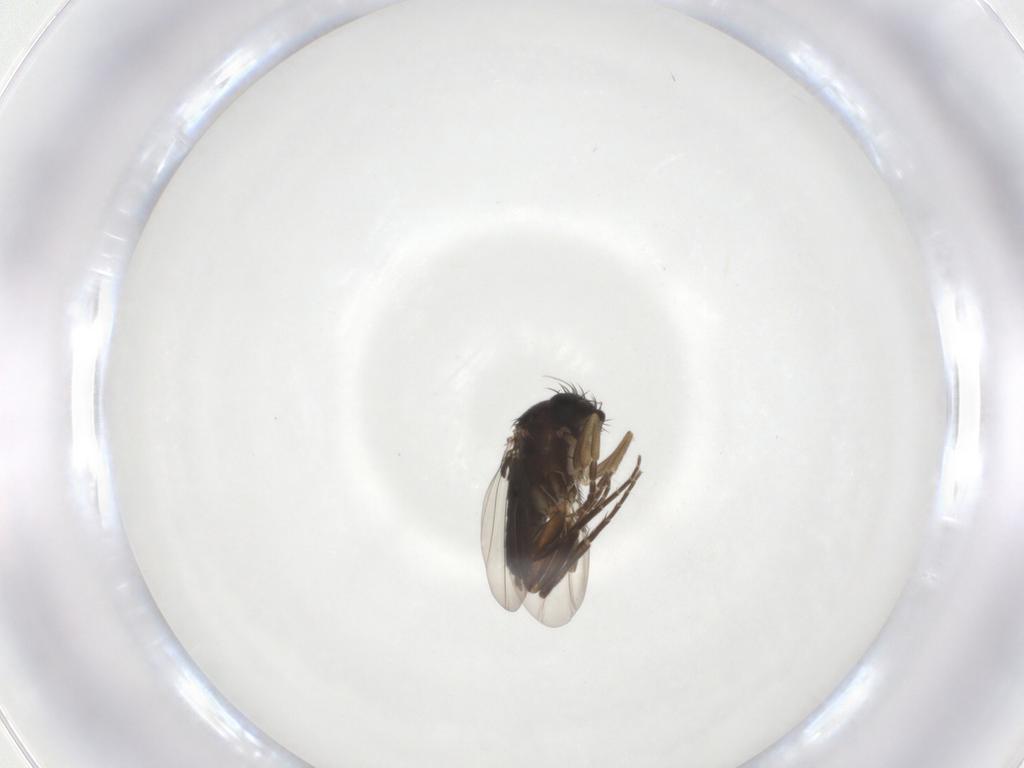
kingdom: Animalia
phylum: Arthropoda
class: Insecta
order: Diptera
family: Phoridae
